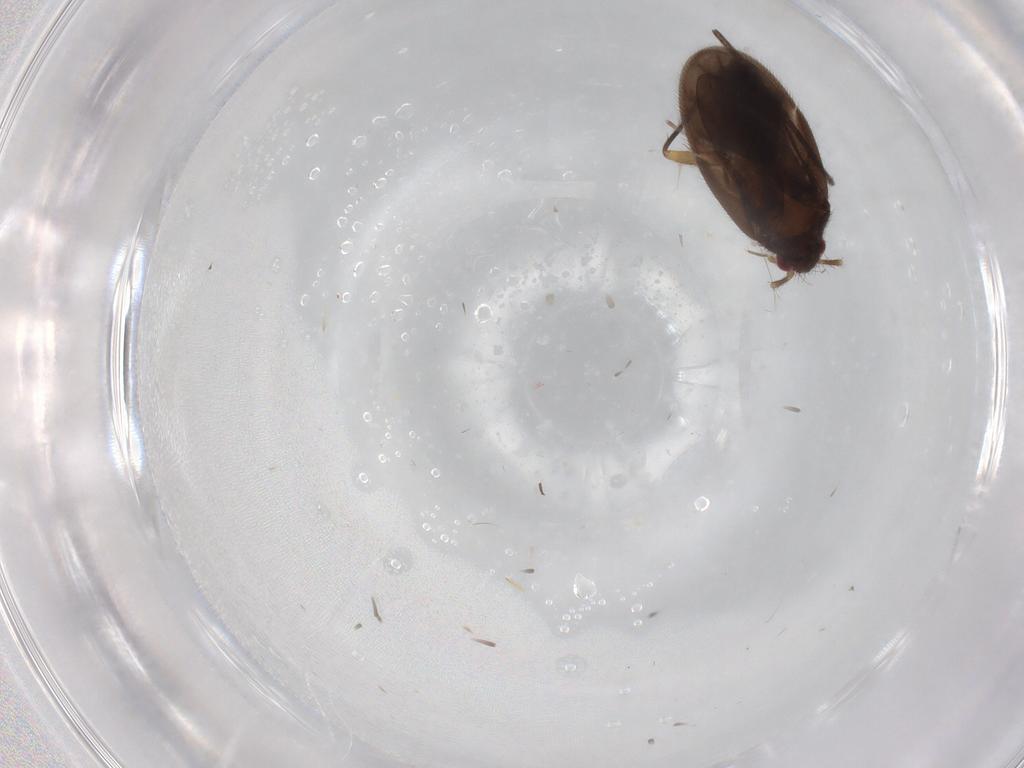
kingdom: Animalia
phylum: Arthropoda
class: Insecta
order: Hemiptera
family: Ceratocombidae
